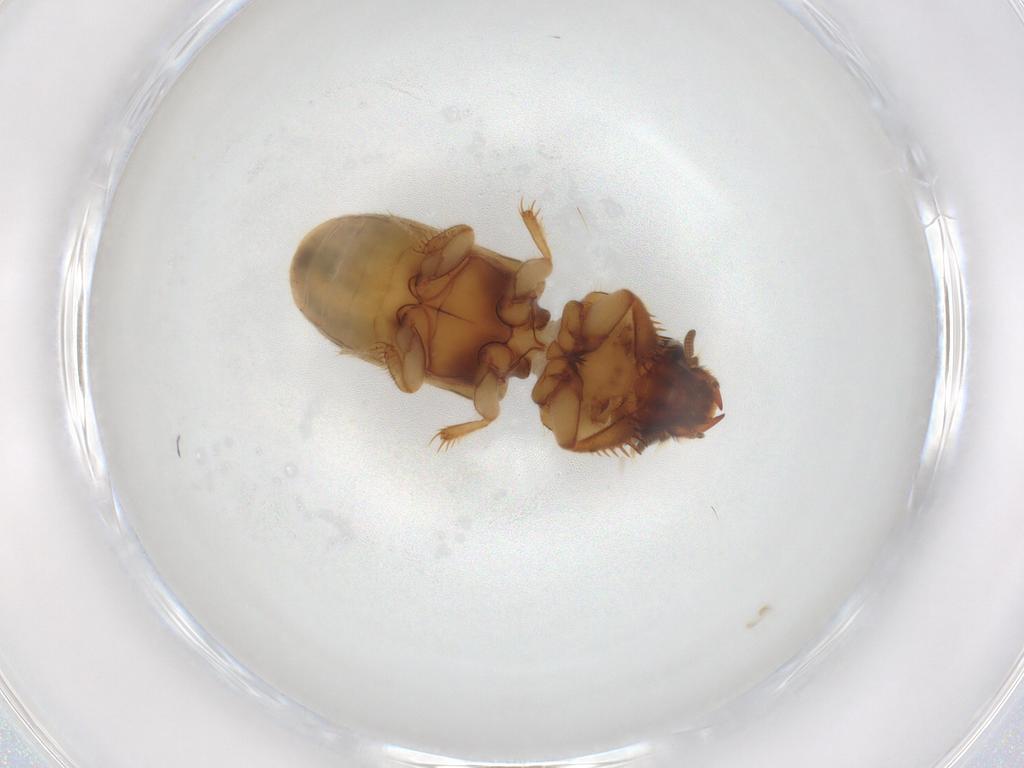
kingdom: Animalia
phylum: Arthropoda
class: Insecta
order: Coleoptera
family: Heteroceridae
